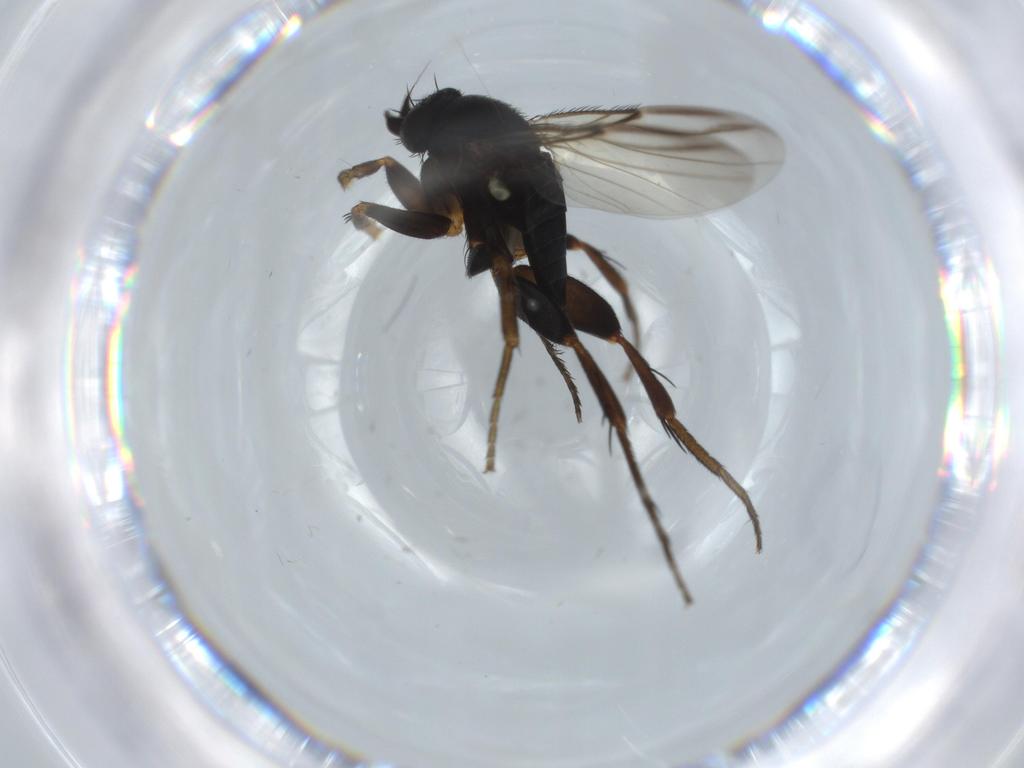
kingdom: Animalia
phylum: Arthropoda
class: Insecta
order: Diptera
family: Phoridae
